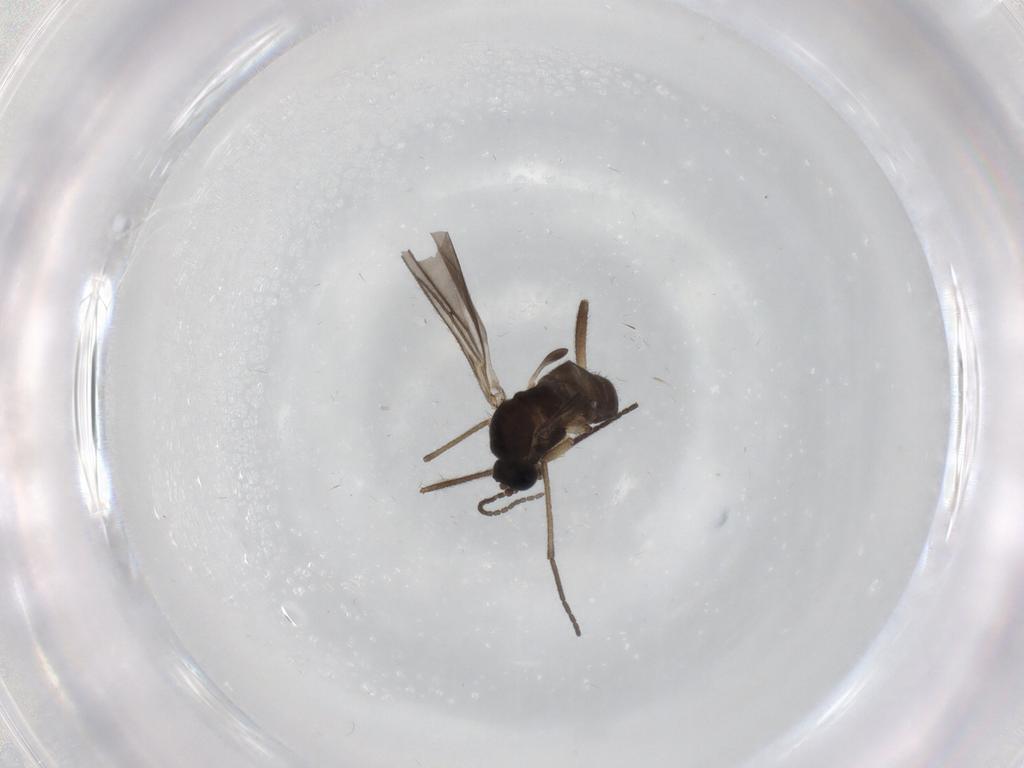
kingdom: Animalia
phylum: Arthropoda
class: Insecta
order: Diptera
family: Sciaridae
